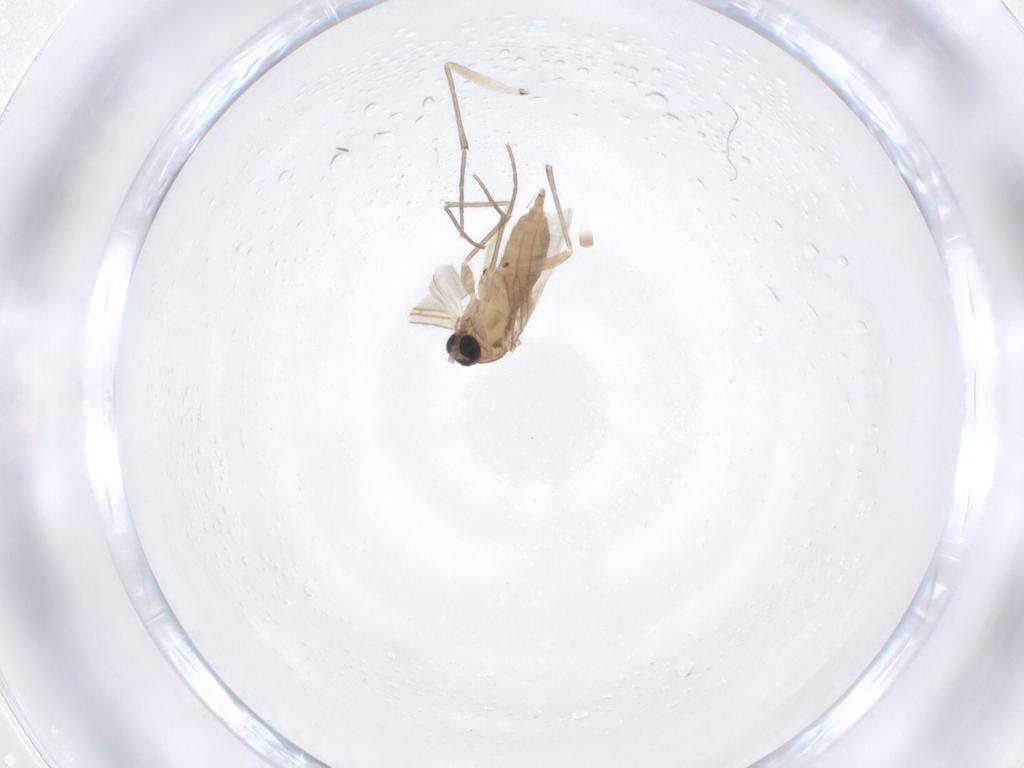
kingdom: Animalia
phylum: Arthropoda
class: Insecta
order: Diptera
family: Sciaridae
